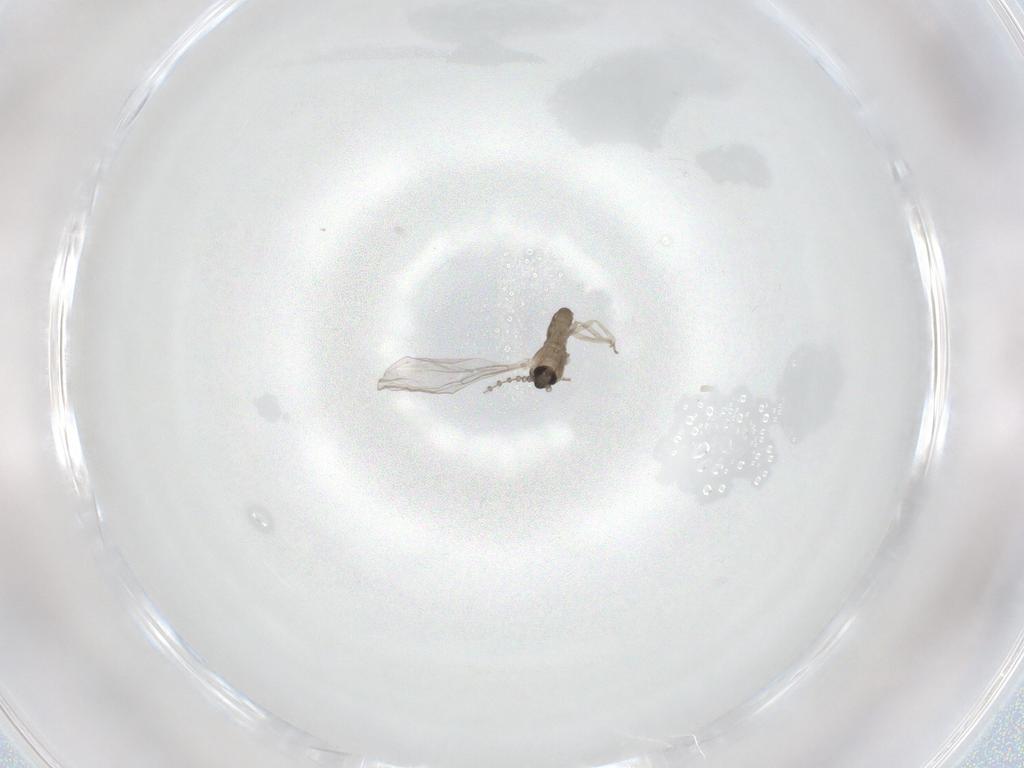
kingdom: Animalia
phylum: Arthropoda
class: Insecta
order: Diptera
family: Cecidomyiidae
